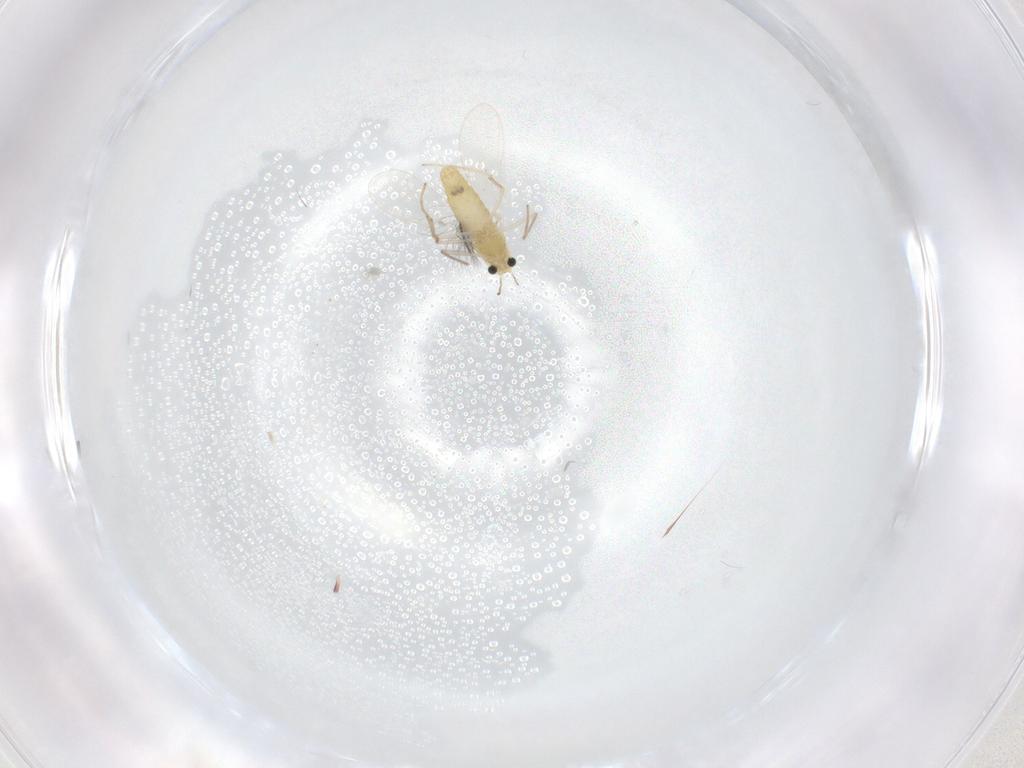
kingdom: Animalia
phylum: Arthropoda
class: Insecta
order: Diptera
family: Chironomidae
